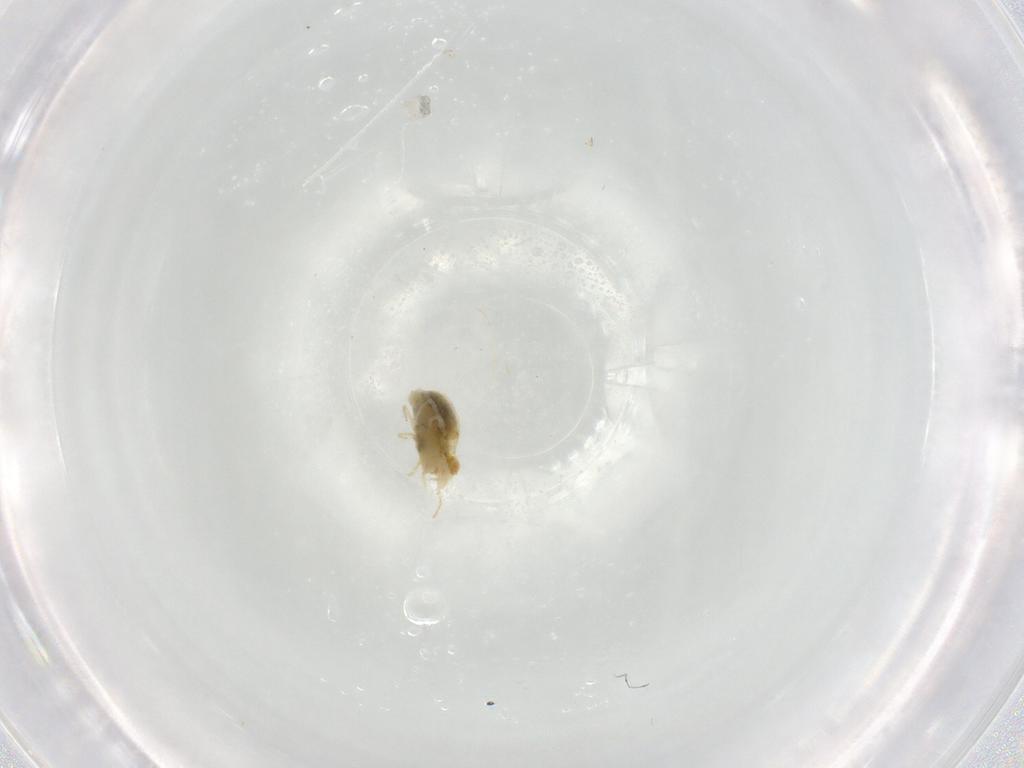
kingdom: Animalia
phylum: Arthropoda
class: Arachnida
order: Trombidiformes
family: Tetranychidae
